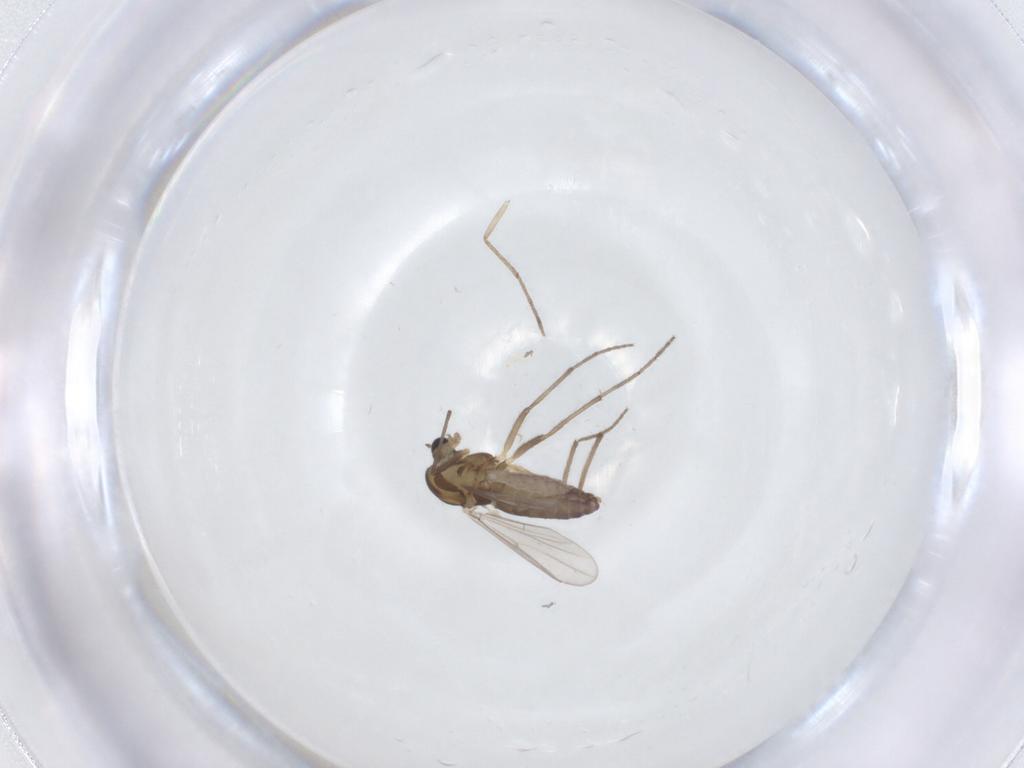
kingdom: Animalia
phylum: Arthropoda
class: Insecta
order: Diptera
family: Chironomidae
